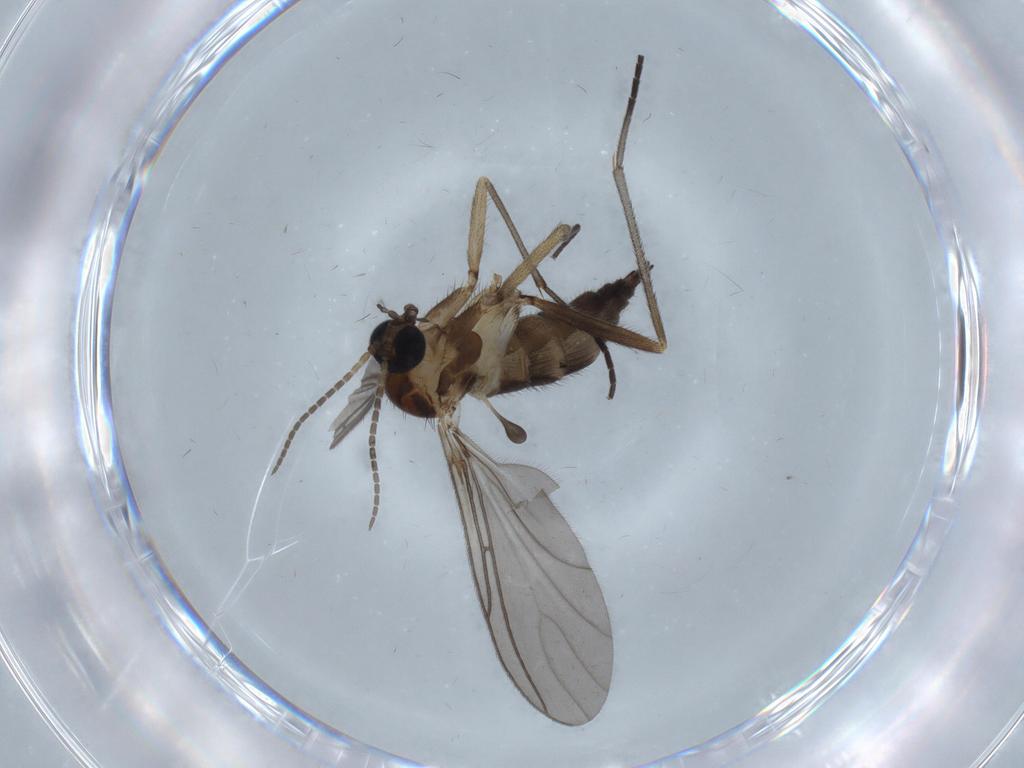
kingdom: Animalia
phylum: Arthropoda
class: Insecta
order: Diptera
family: Sciaridae
